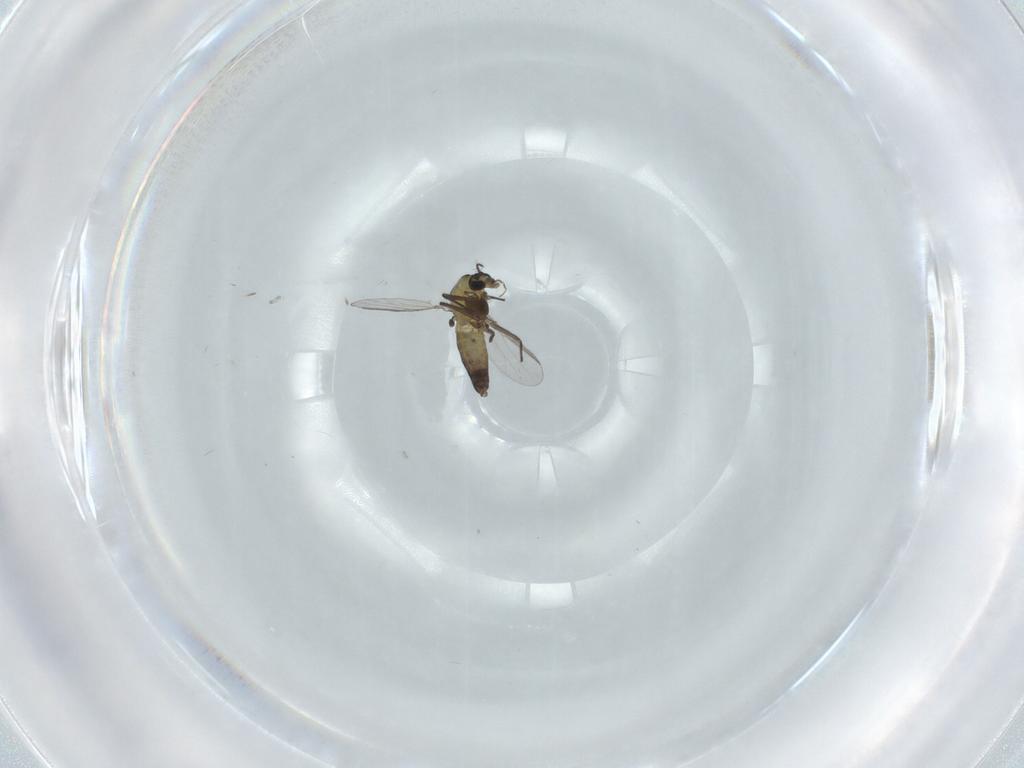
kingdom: Animalia
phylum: Arthropoda
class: Insecta
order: Diptera
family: Chironomidae
